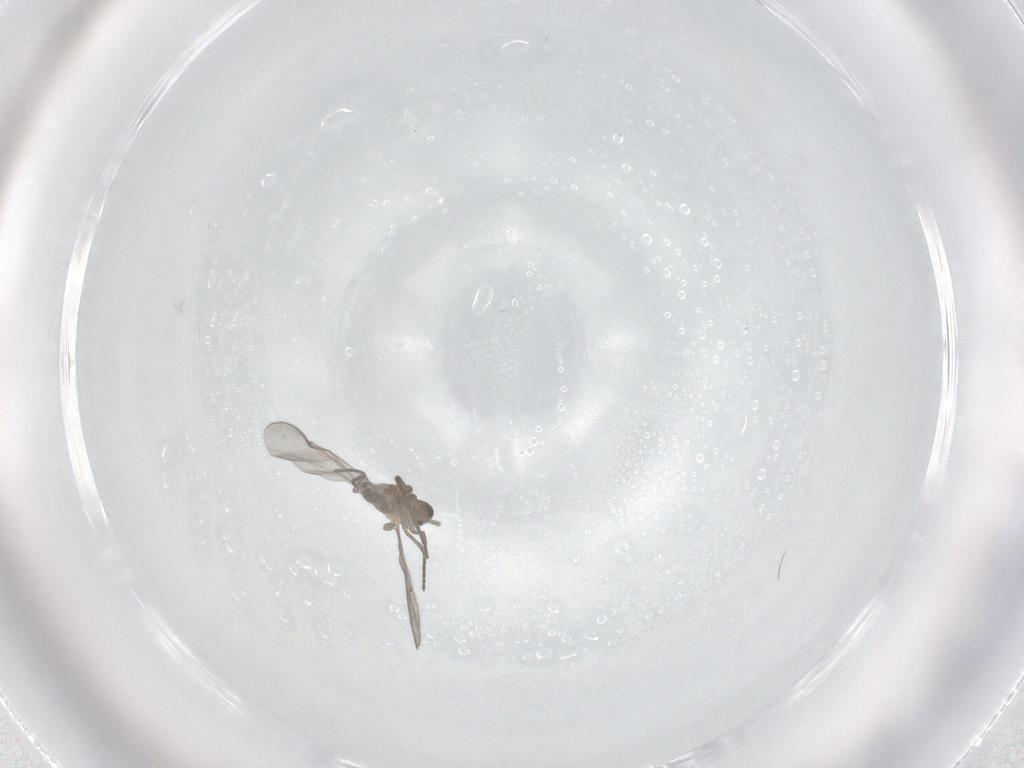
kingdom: Animalia
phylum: Arthropoda
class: Insecta
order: Diptera
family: Sciaridae
